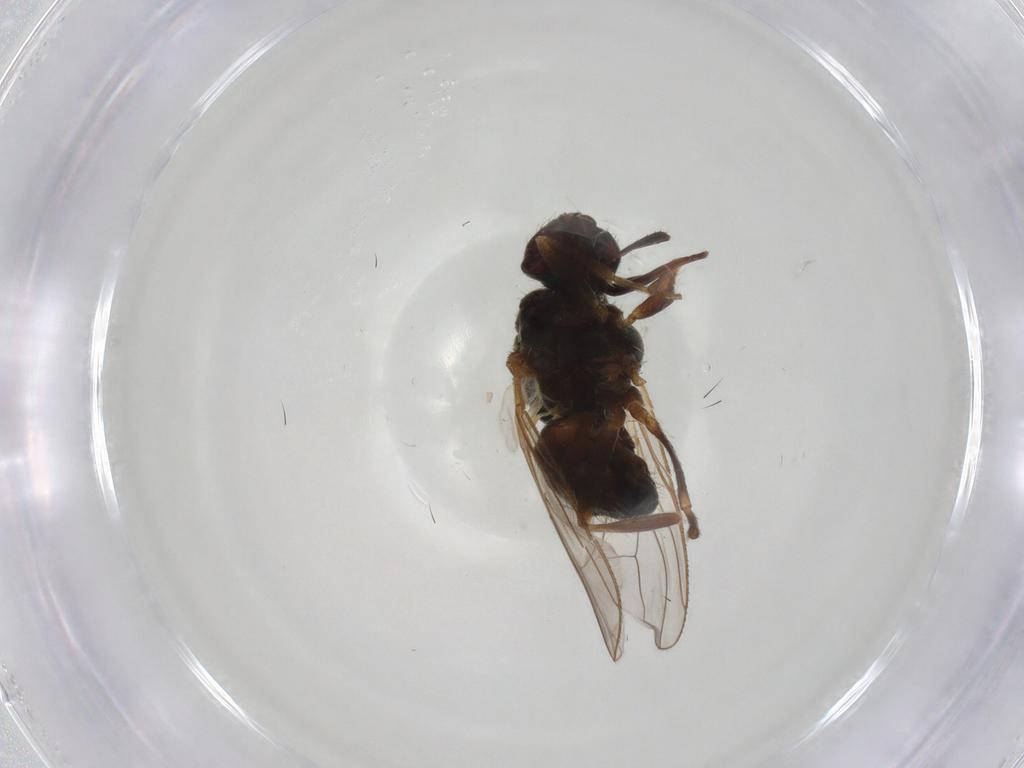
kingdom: Animalia
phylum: Arthropoda
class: Insecta
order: Diptera
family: Muscidae
